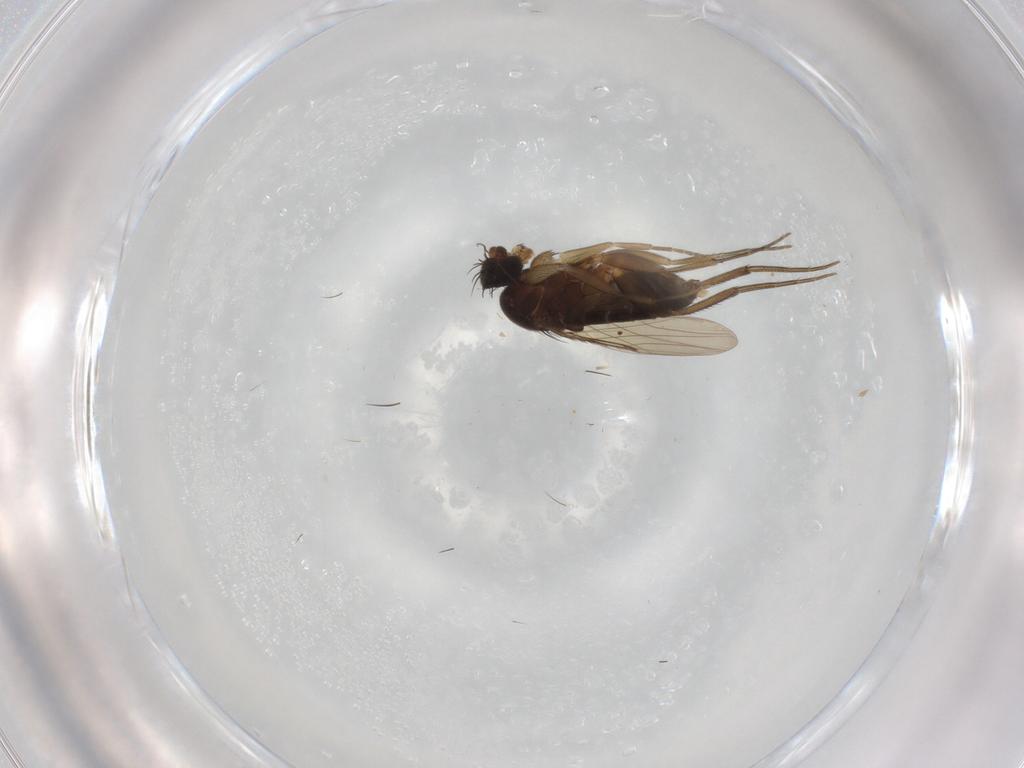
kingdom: Animalia
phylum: Arthropoda
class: Insecta
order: Diptera
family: Phoridae
